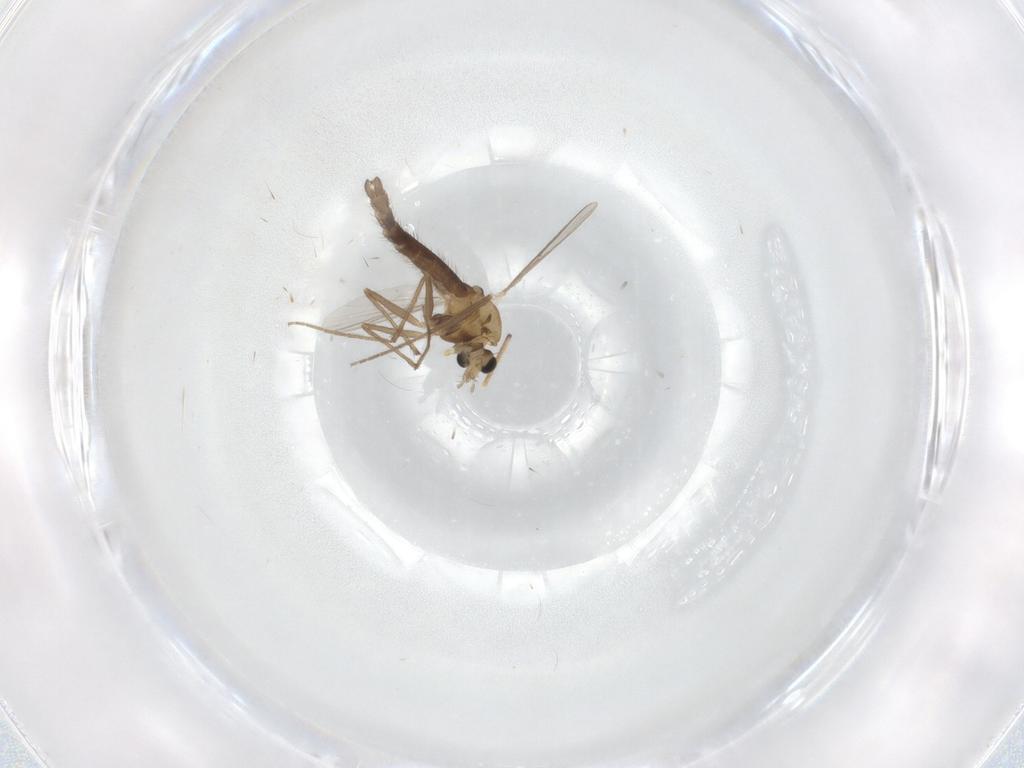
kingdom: Animalia
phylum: Arthropoda
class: Insecta
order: Diptera
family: Chironomidae
